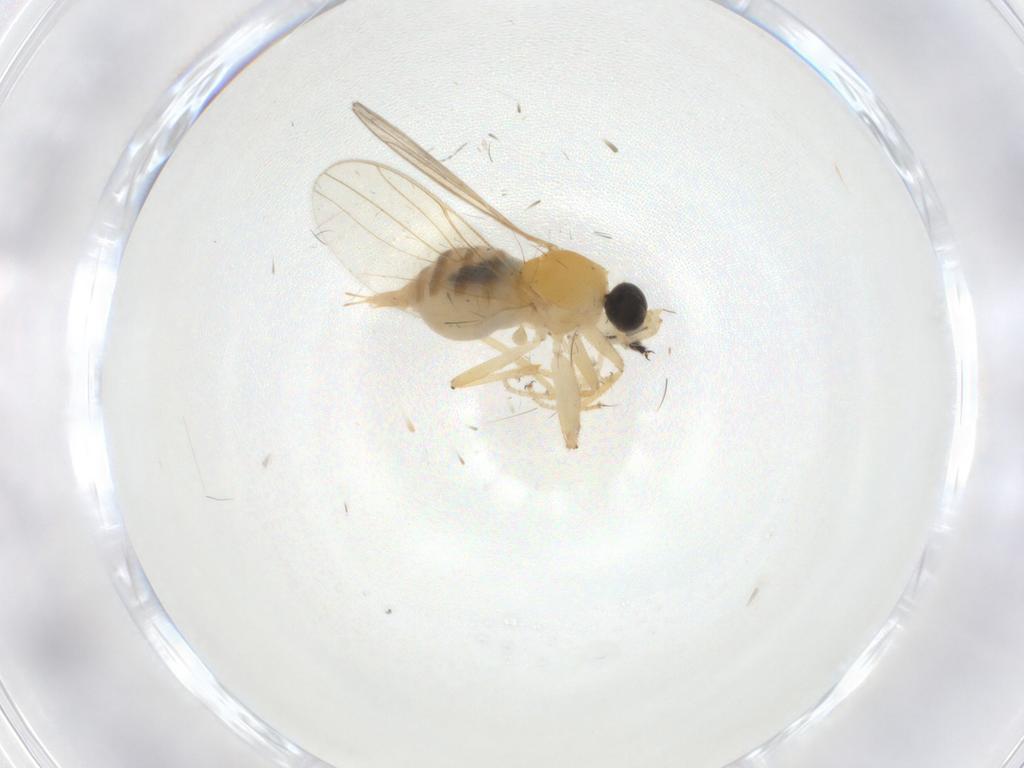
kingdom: Animalia
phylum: Arthropoda
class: Insecta
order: Diptera
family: Simuliidae
